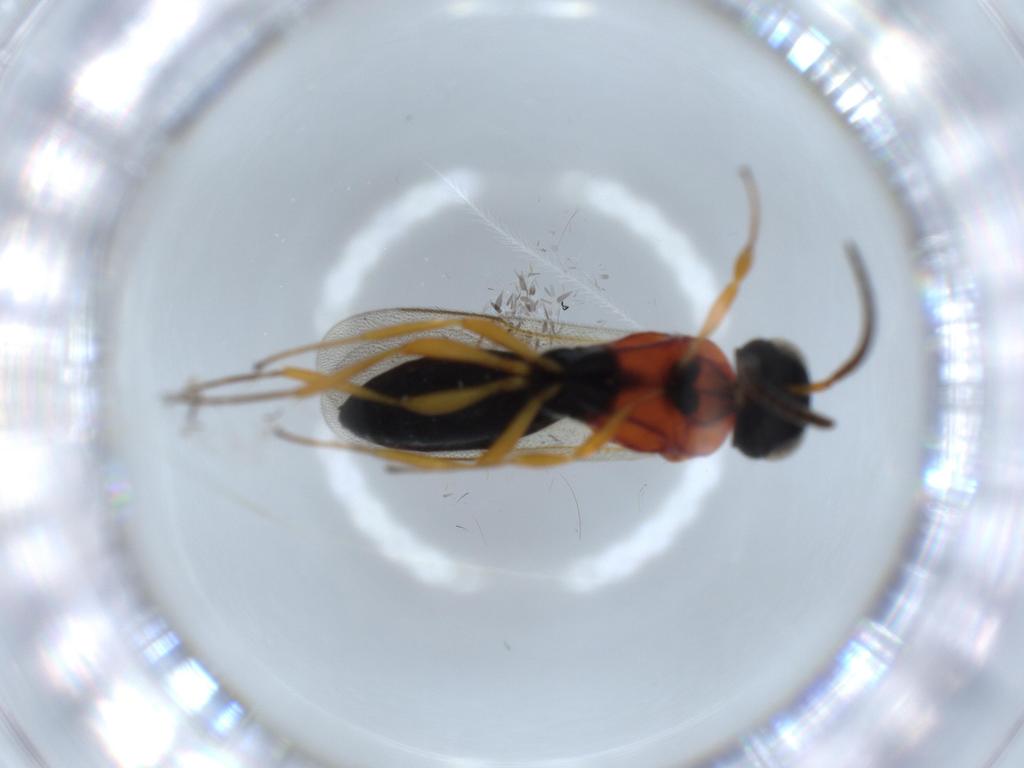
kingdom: Animalia
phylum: Arthropoda
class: Insecta
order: Hymenoptera
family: Scelionidae
